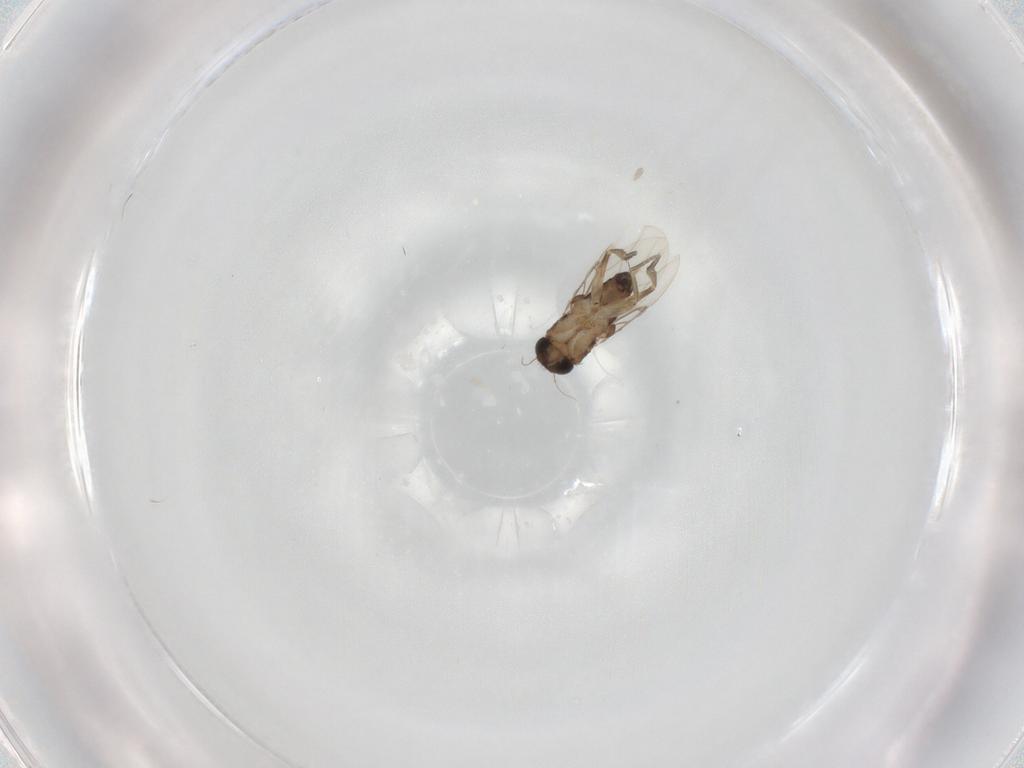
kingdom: Animalia
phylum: Arthropoda
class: Insecta
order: Diptera
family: Phoridae
